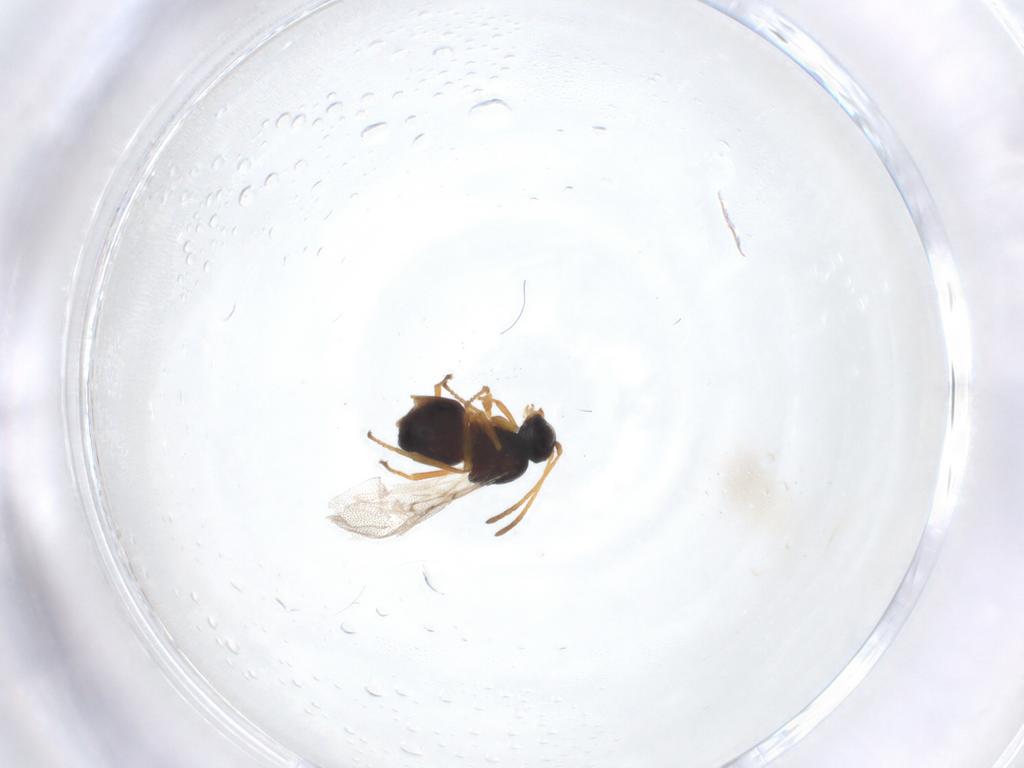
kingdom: Animalia
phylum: Arthropoda
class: Insecta
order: Hymenoptera
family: Cynipidae
